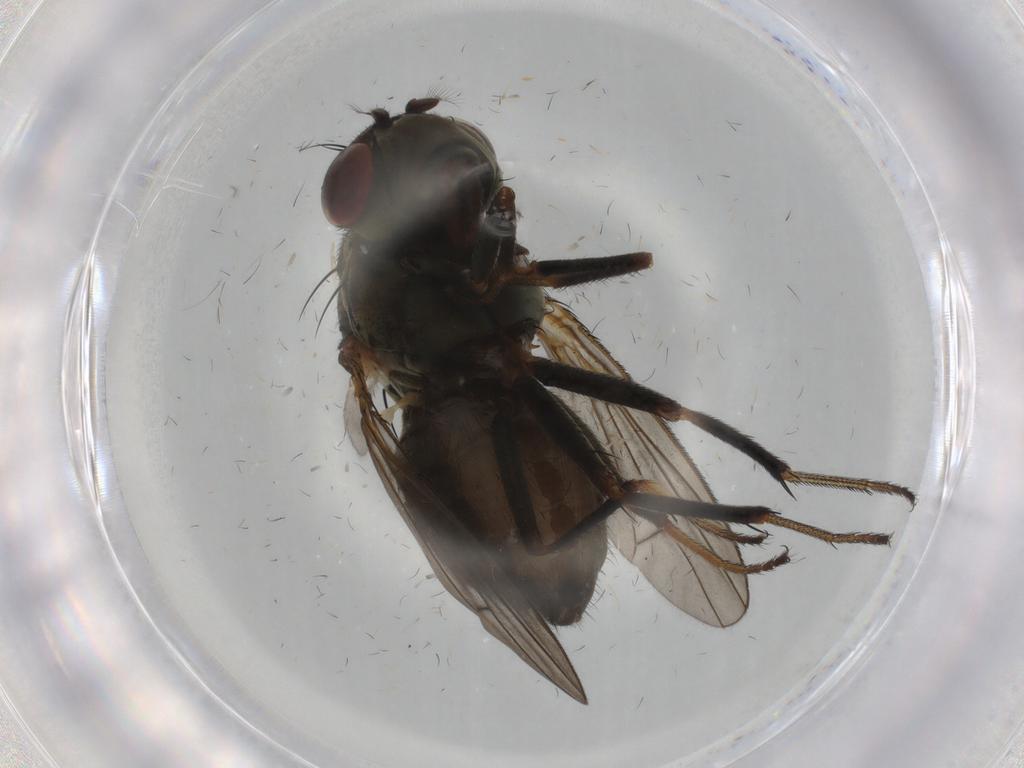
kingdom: Animalia
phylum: Arthropoda
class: Insecta
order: Diptera
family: Ephydridae
